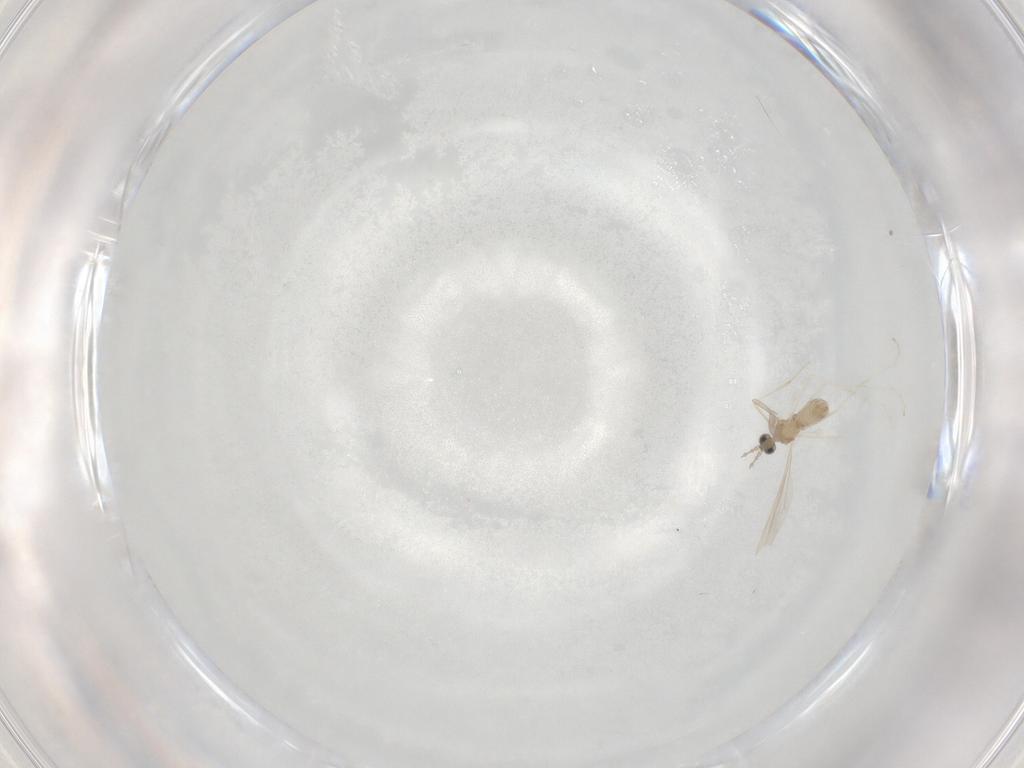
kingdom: Animalia
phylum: Arthropoda
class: Insecta
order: Diptera
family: Cecidomyiidae
